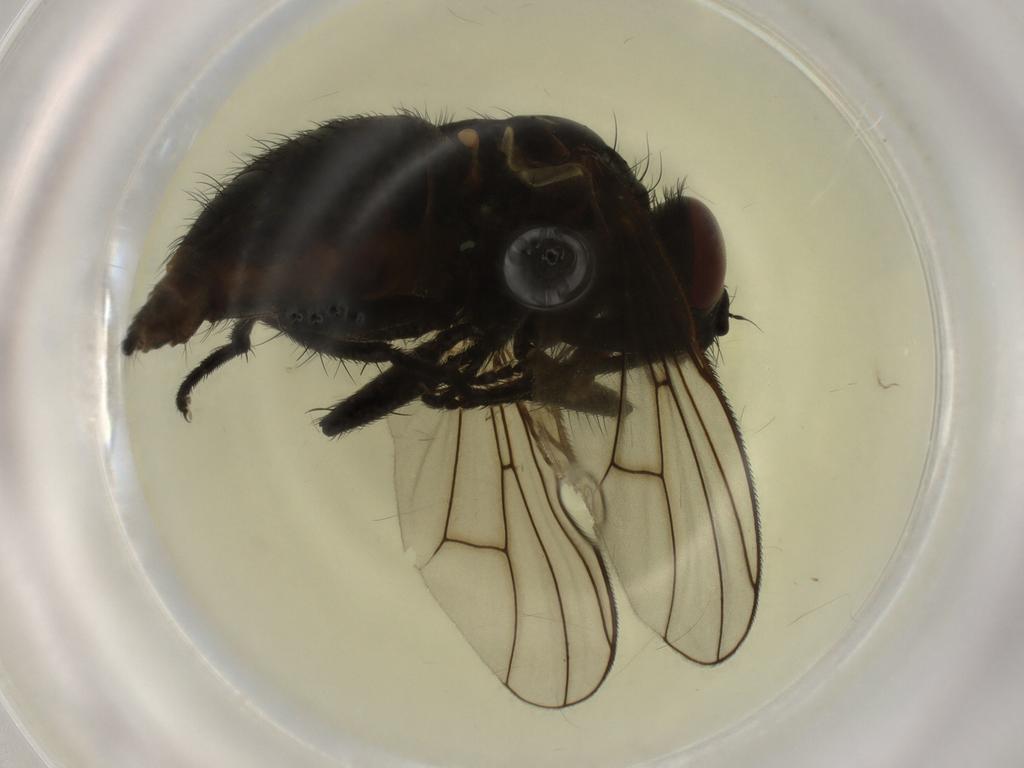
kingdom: Animalia
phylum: Arthropoda
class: Insecta
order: Diptera
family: Muscidae
